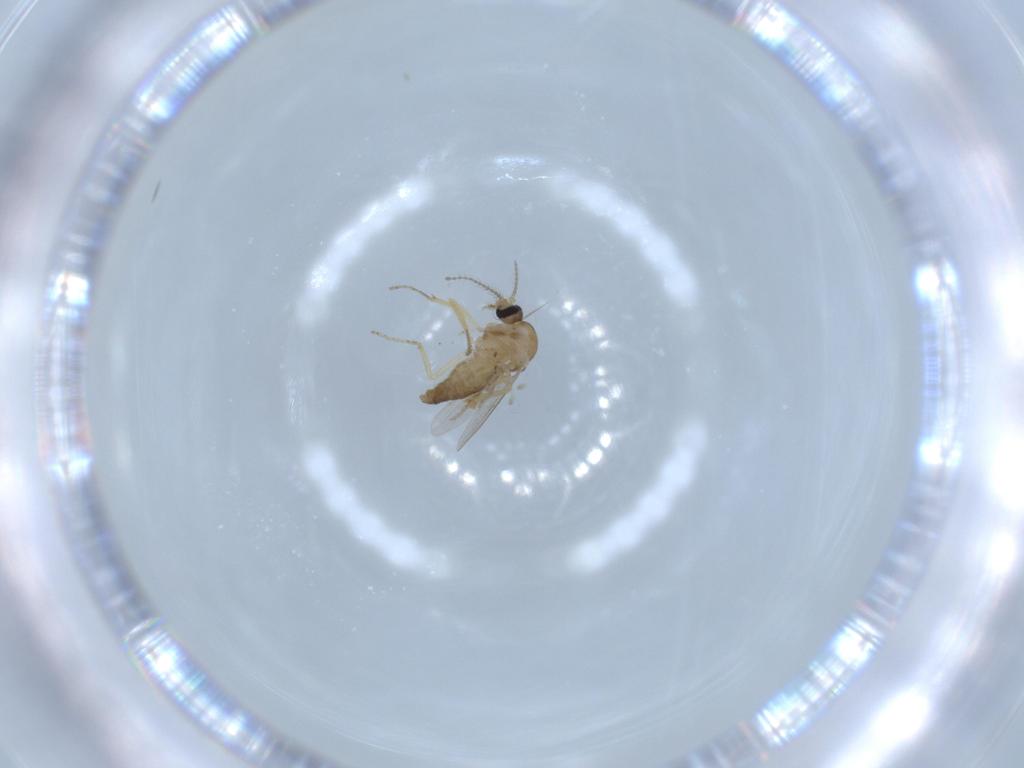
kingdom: Animalia
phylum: Arthropoda
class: Insecta
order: Diptera
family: Ceratopogonidae
